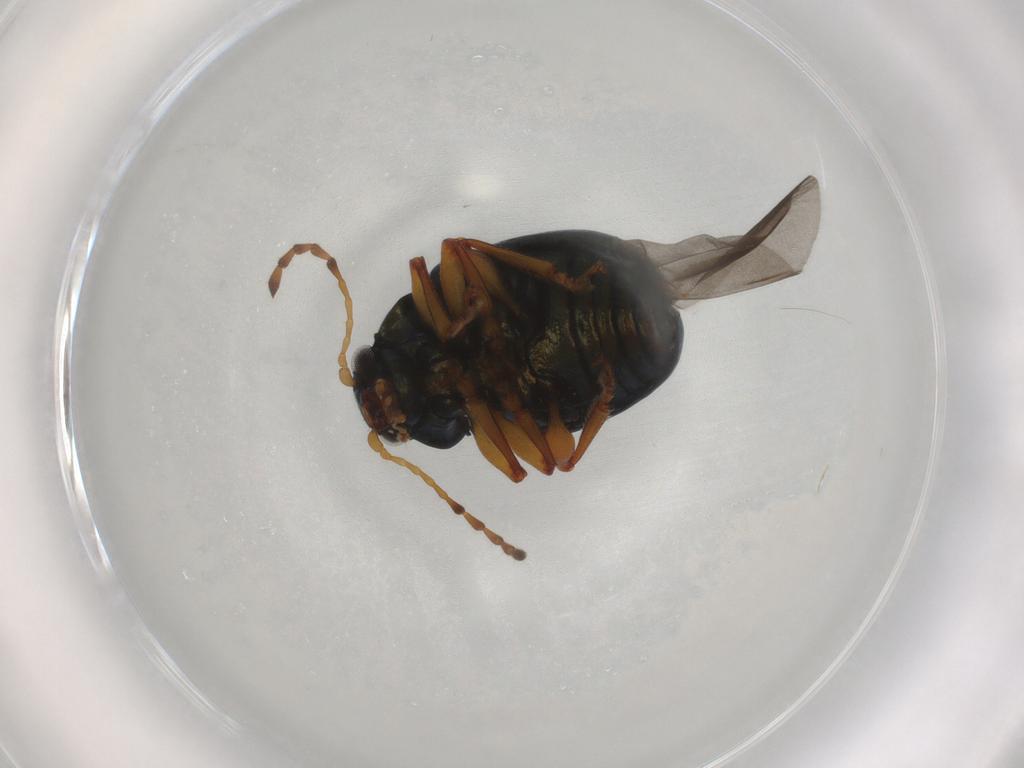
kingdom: Animalia
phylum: Arthropoda
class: Insecta
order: Coleoptera
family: Chrysomelidae
